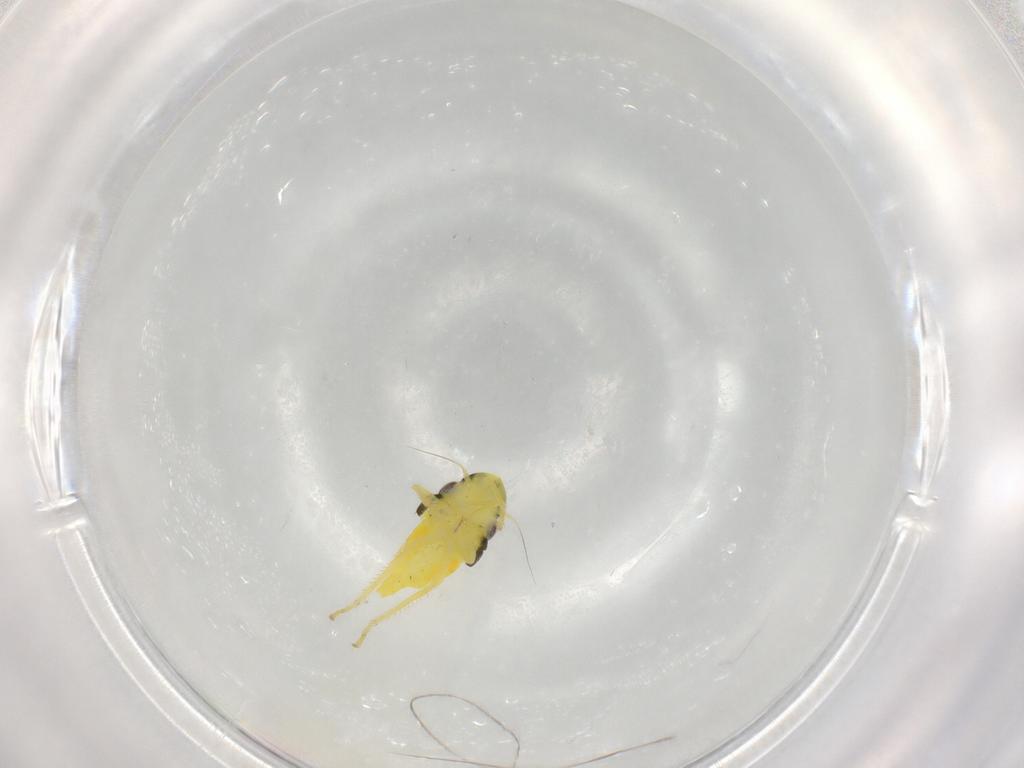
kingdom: Animalia
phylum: Arthropoda
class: Insecta
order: Hemiptera
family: Cicadellidae
